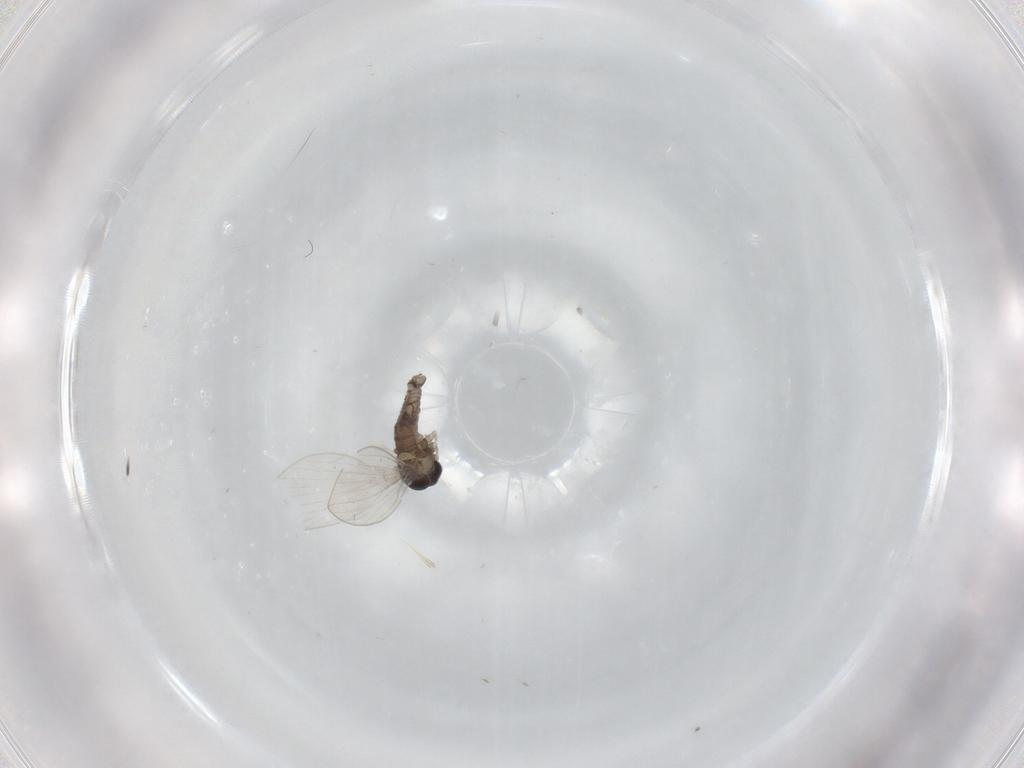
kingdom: Animalia
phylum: Arthropoda
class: Insecta
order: Diptera
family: Psychodidae
